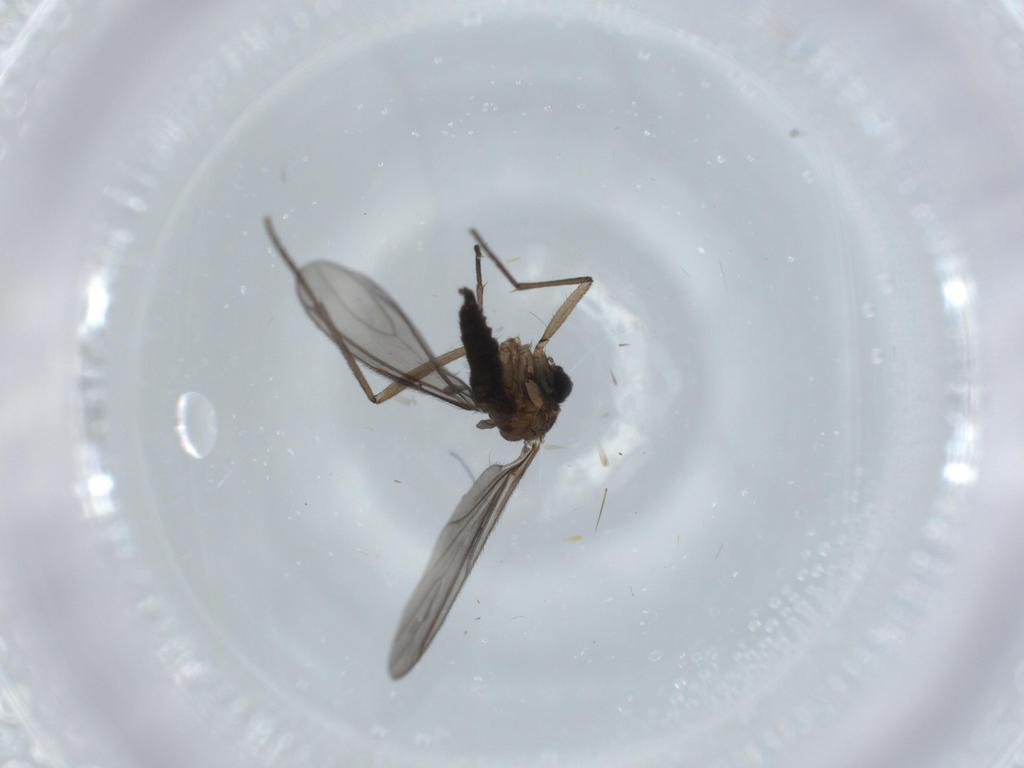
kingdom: Animalia
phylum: Arthropoda
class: Insecta
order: Diptera
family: Sciaridae
